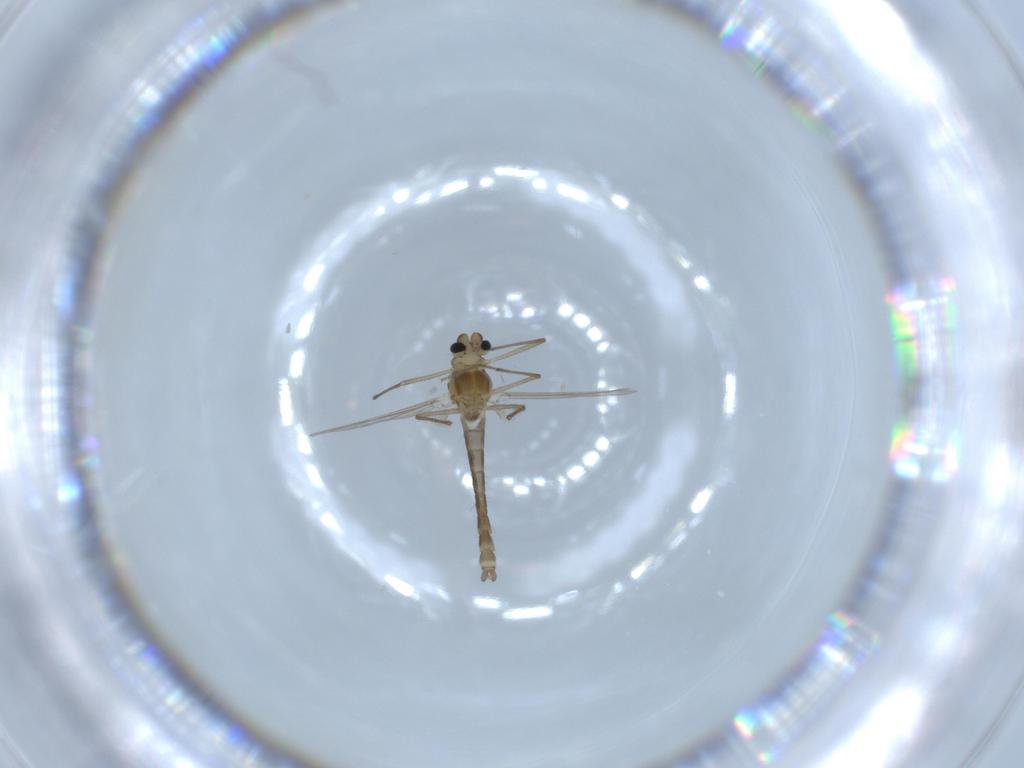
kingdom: Animalia
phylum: Arthropoda
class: Insecta
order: Diptera
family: Chironomidae
